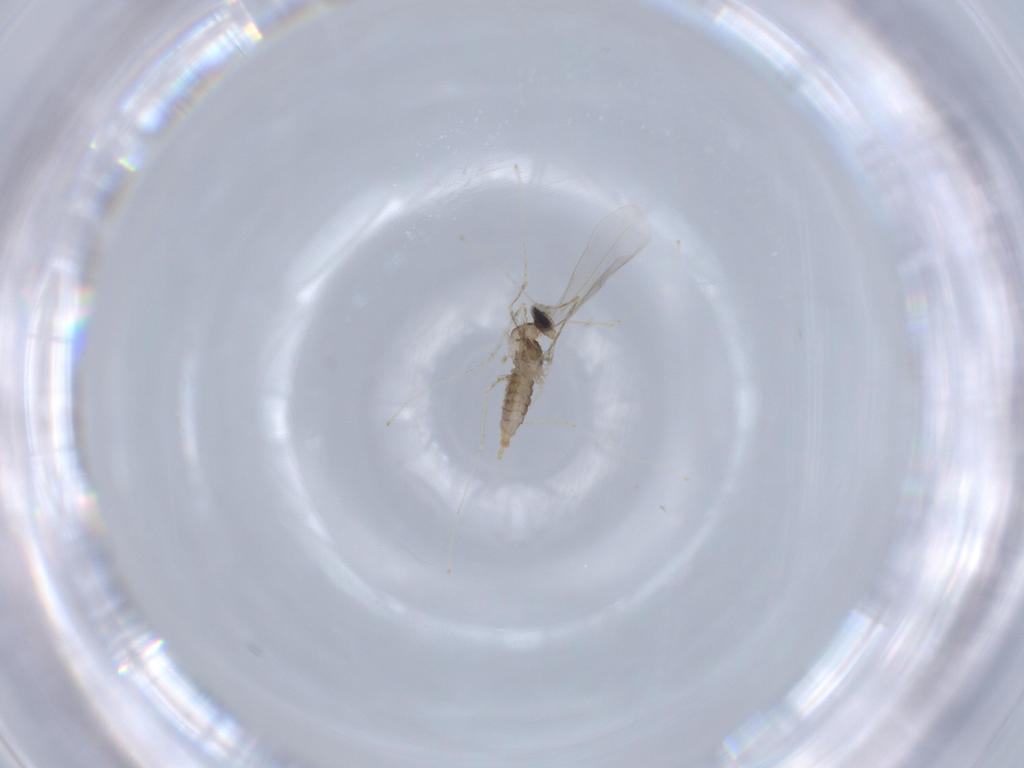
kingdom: Animalia
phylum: Arthropoda
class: Insecta
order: Diptera
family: Cecidomyiidae
